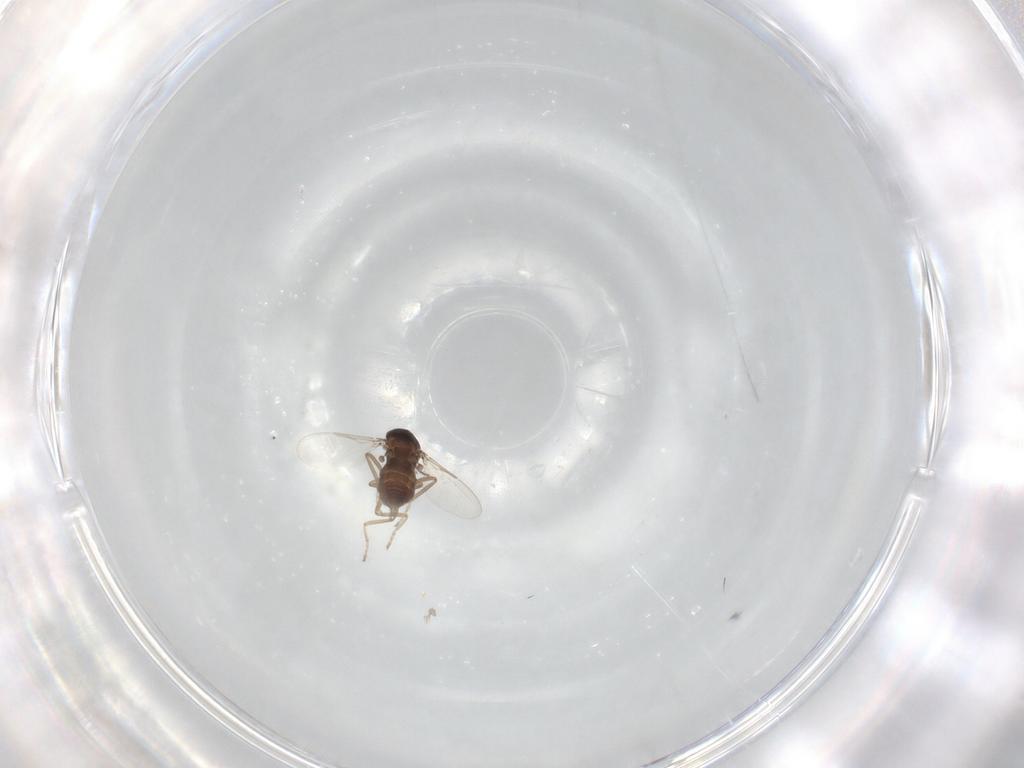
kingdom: Animalia
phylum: Arthropoda
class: Insecta
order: Diptera
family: Ceratopogonidae
